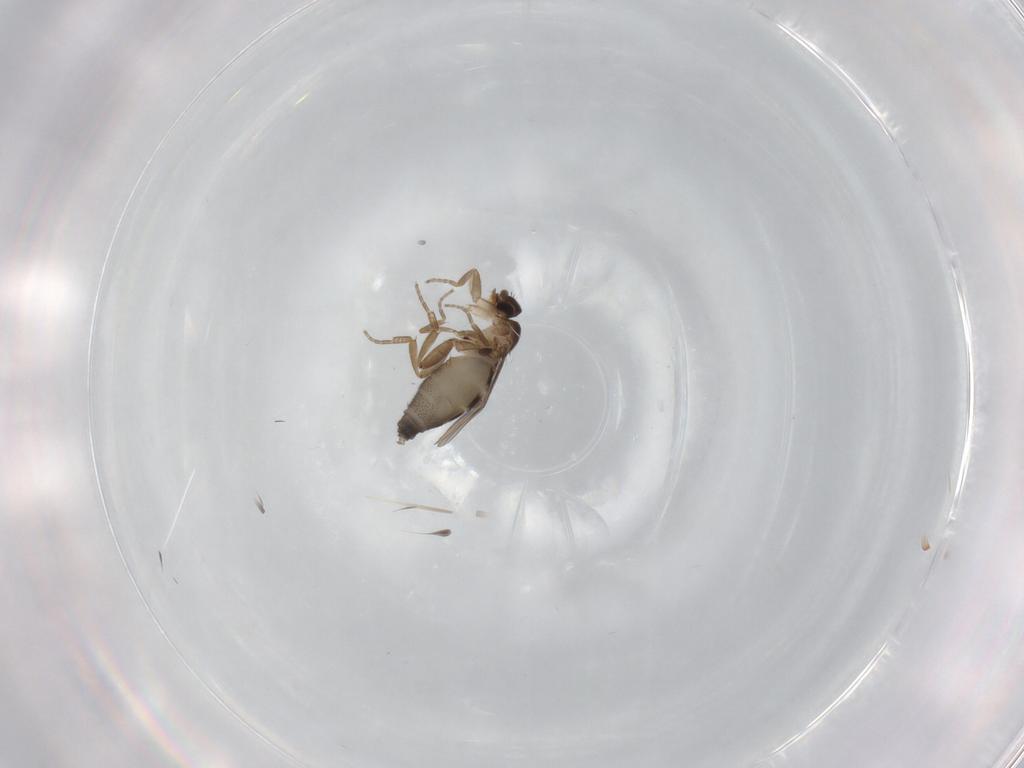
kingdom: Animalia
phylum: Arthropoda
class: Insecta
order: Diptera
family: Phoridae
